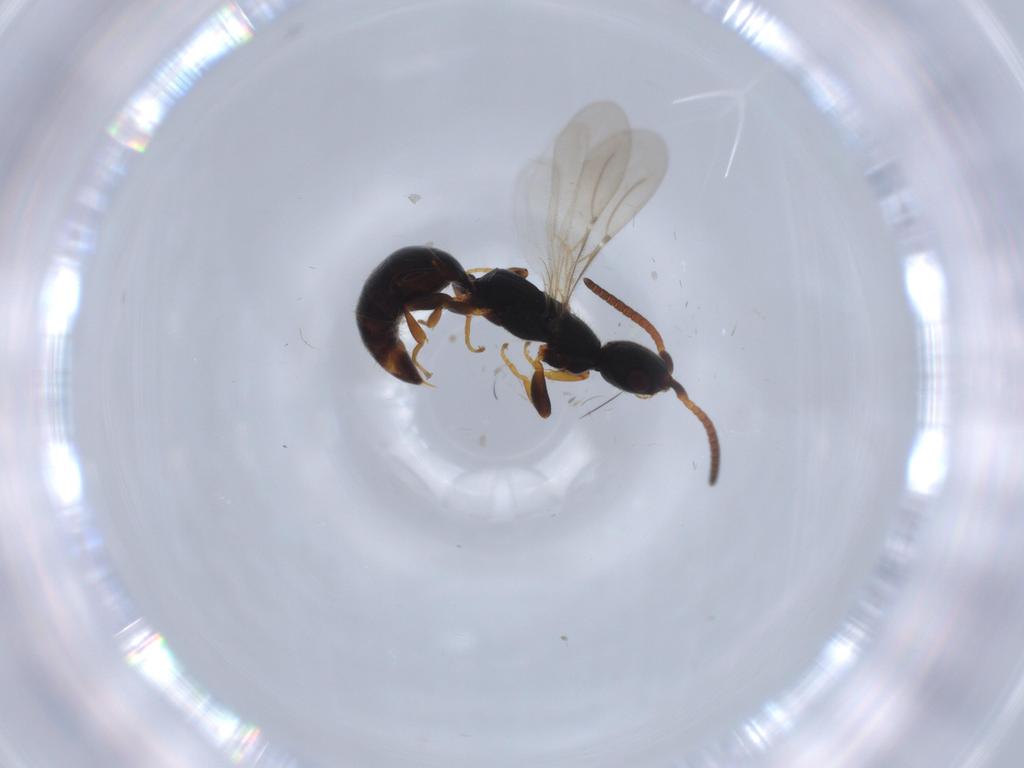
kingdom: Animalia
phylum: Arthropoda
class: Insecta
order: Hymenoptera
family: Bethylidae
